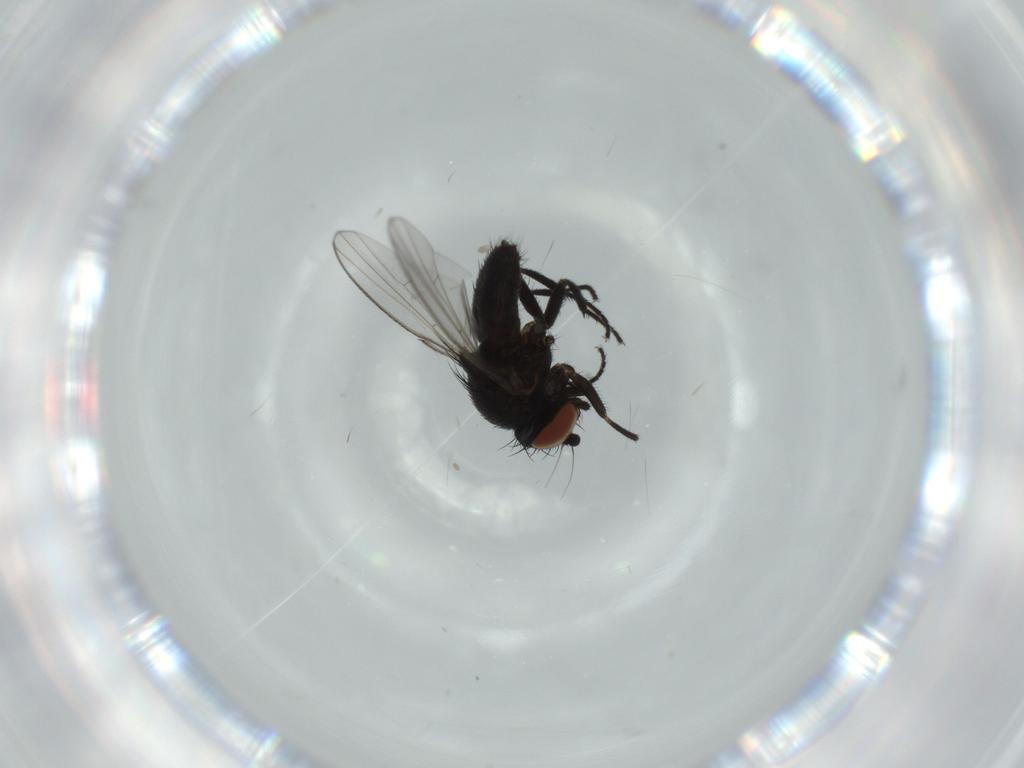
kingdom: Animalia
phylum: Arthropoda
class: Insecta
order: Diptera
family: Milichiidae
